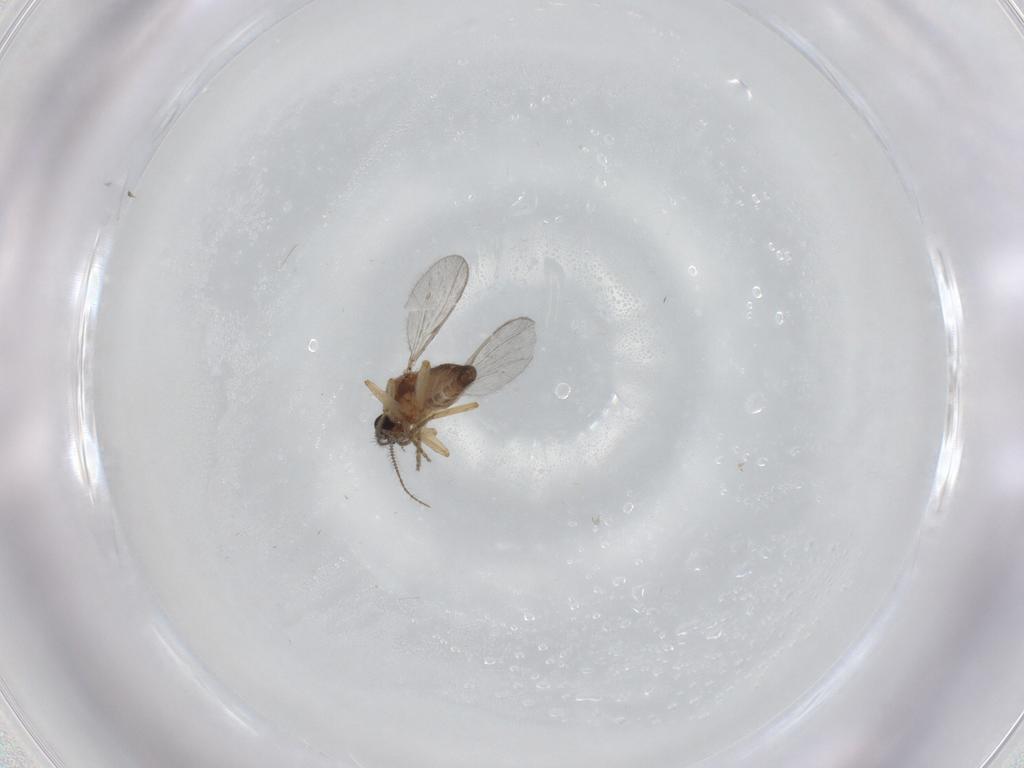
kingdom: Animalia
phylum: Arthropoda
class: Insecta
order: Diptera
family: Ceratopogonidae
